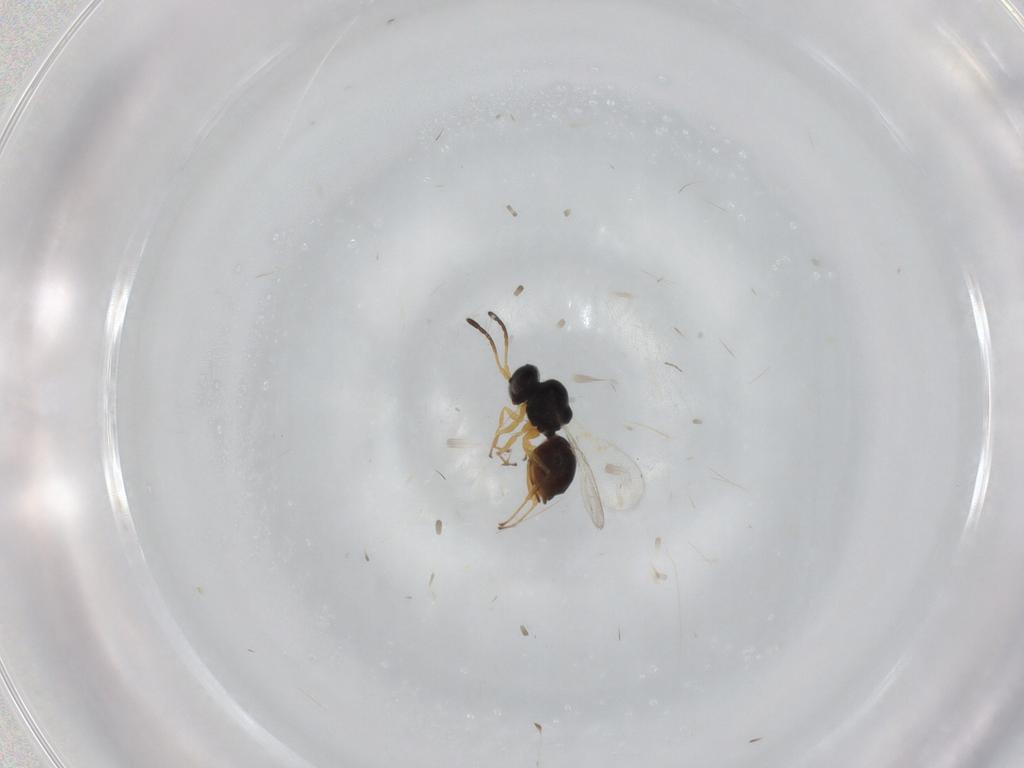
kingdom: Animalia
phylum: Arthropoda
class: Insecta
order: Hymenoptera
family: Figitidae
